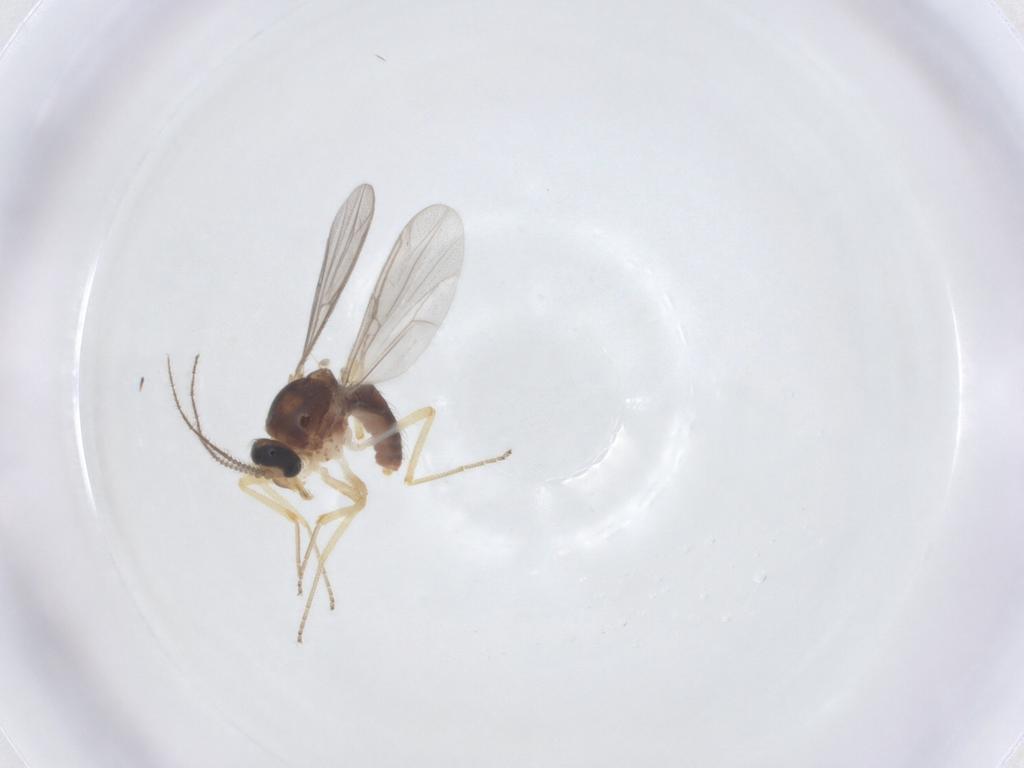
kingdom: Animalia
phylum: Arthropoda
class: Insecta
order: Diptera
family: Ceratopogonidae
